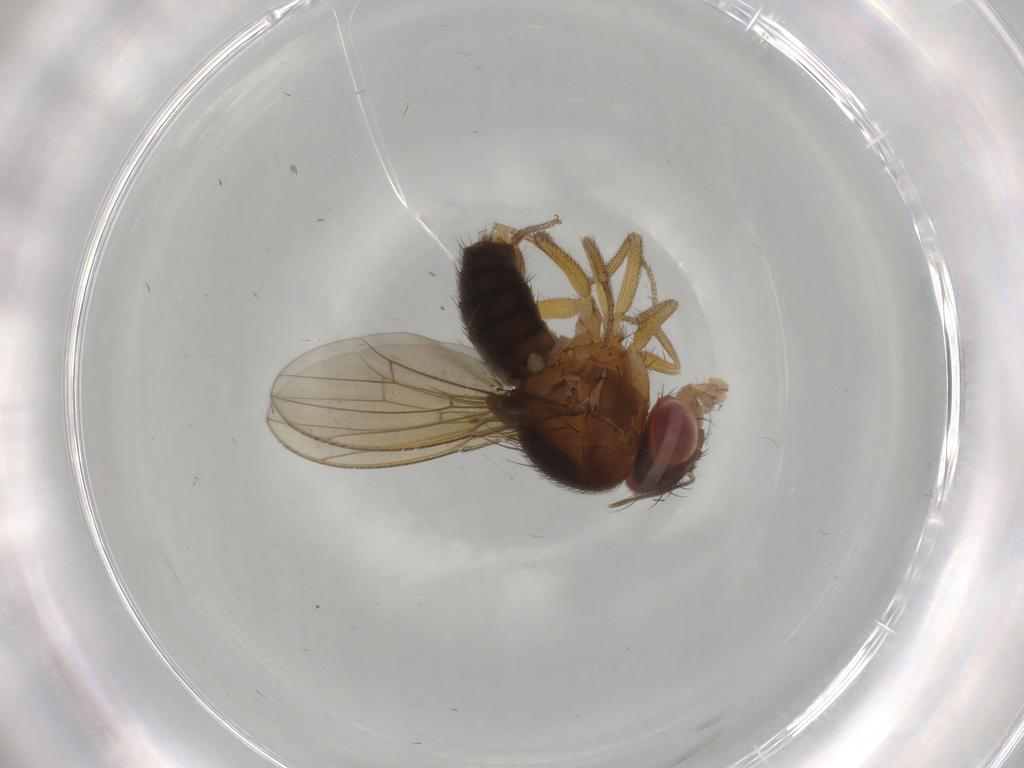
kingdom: Animalia
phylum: Arthropoda
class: Insecta
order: Diptera
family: Drosophilidae
